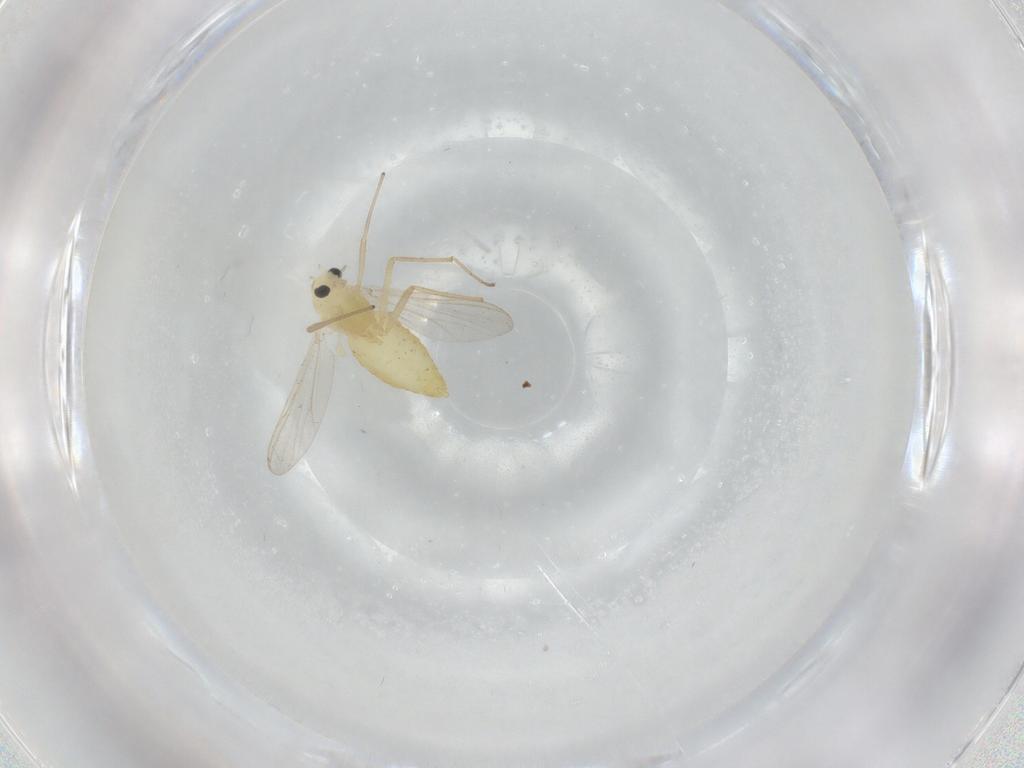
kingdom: Animalia
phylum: Arthropoda
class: Insecta
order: Diptera
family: Chironomidae
